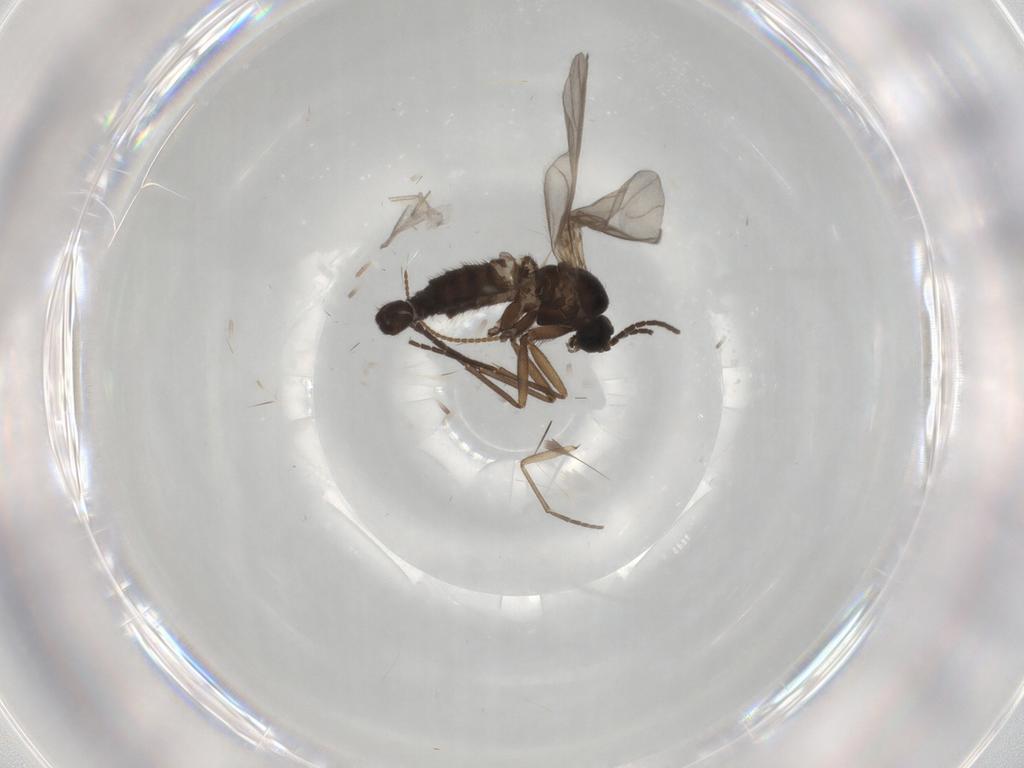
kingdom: Animalia
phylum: Arthropoda
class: Insecta
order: Diptera
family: Sciaridae
